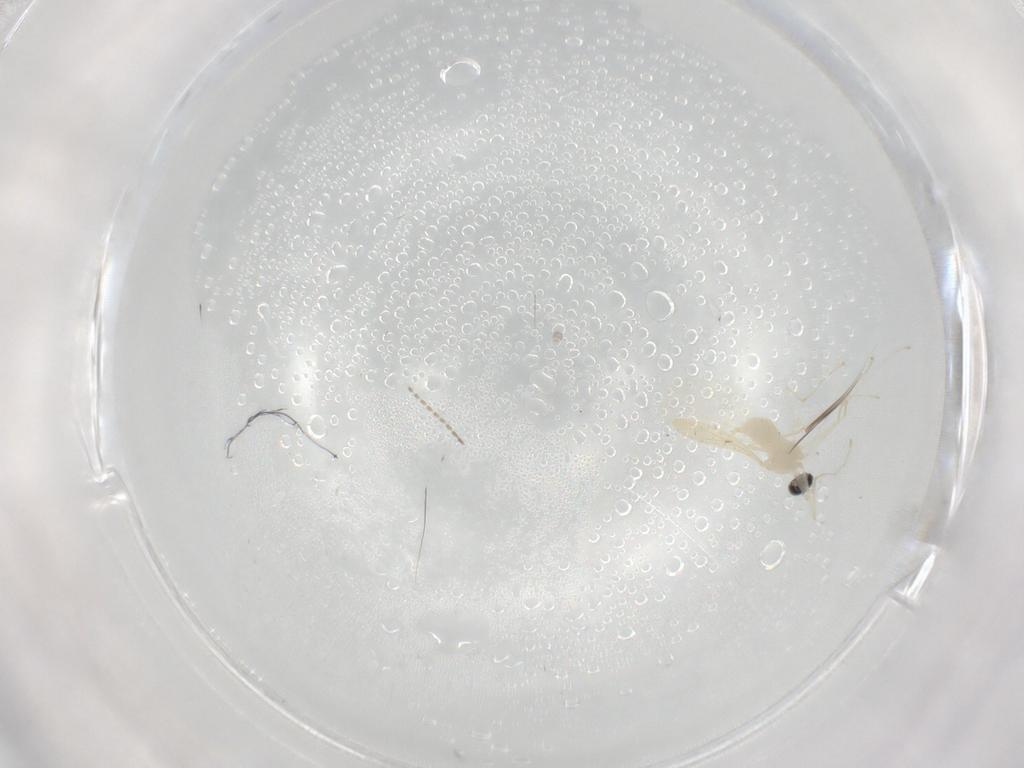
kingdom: Animalia
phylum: Arthropoda
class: Insecta
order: Diptera
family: Cecidomyiidae
